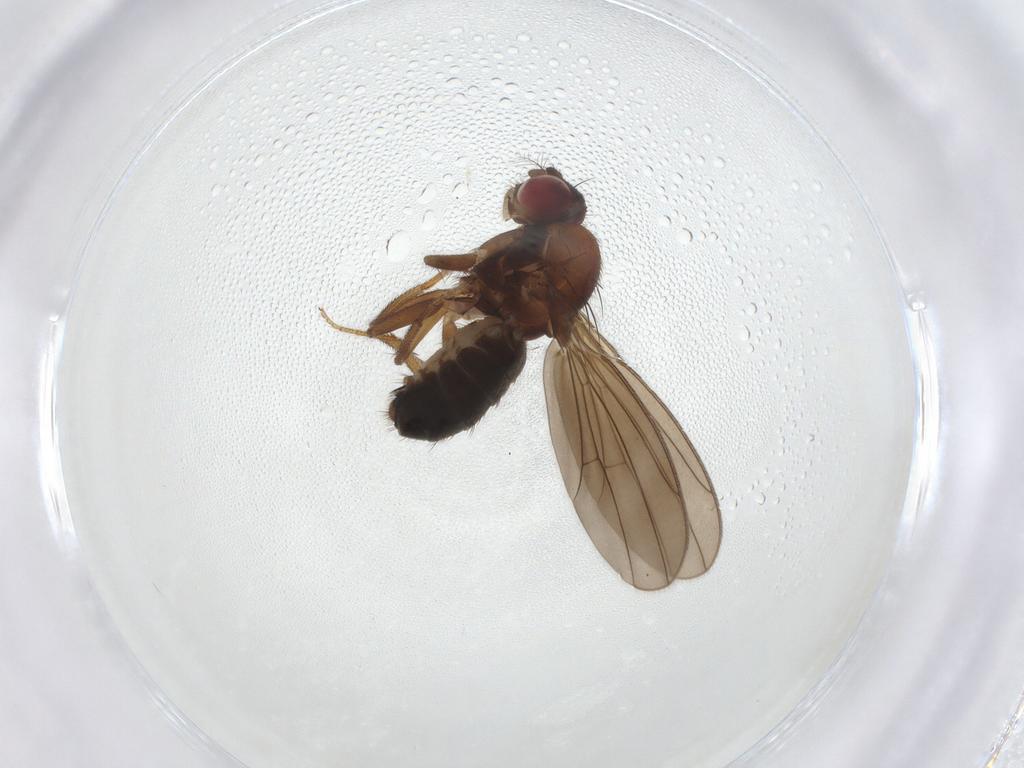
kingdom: Animalia
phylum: Arthropoda
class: Insecta
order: Diptera
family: Drosophilidae
